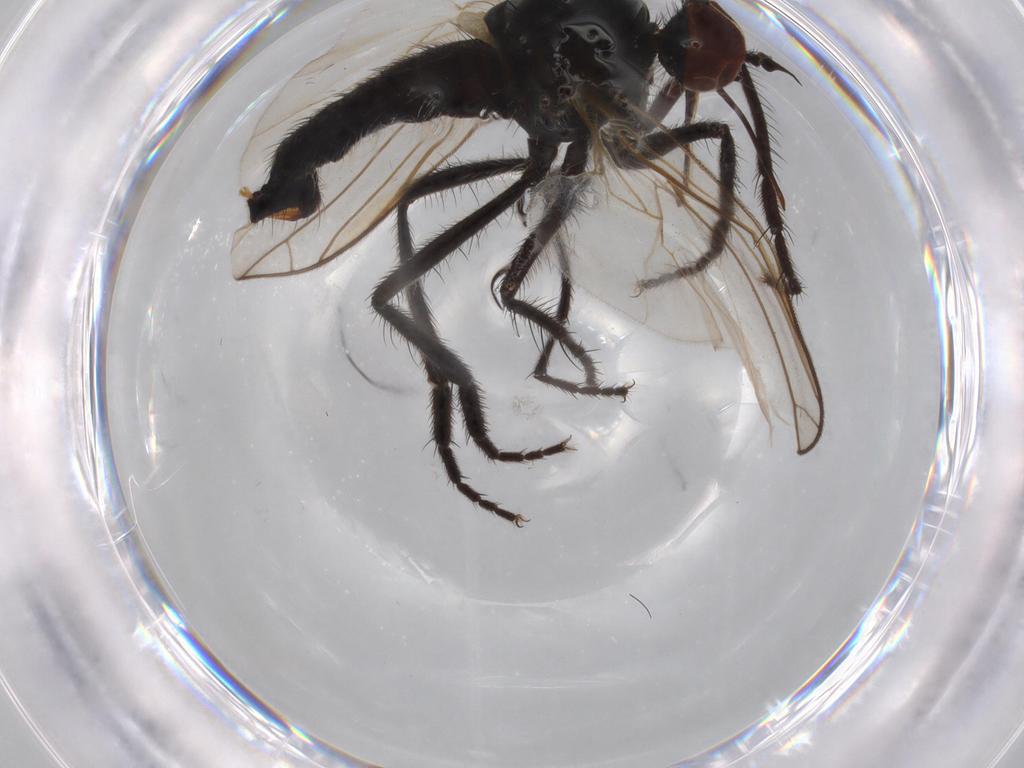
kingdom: Animalia
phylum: Arthropoda
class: Insecta
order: Diptera
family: Empididae
